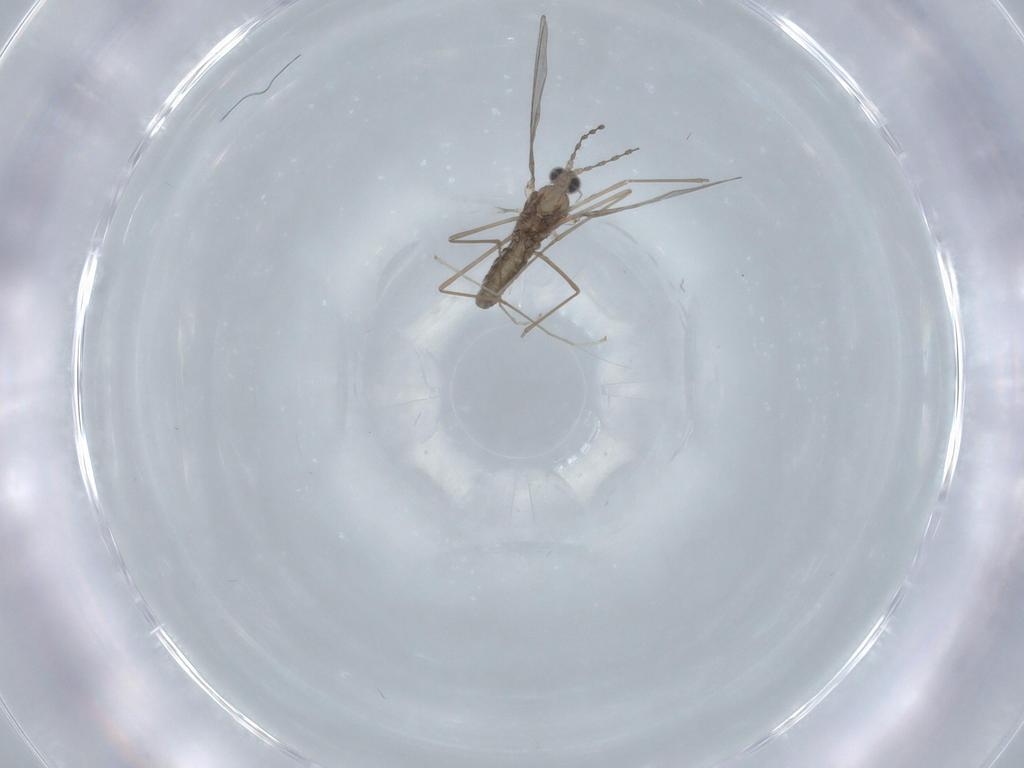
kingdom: Animalia
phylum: Arthropoda
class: Insecta
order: Diptera
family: Cecidomyiidae
